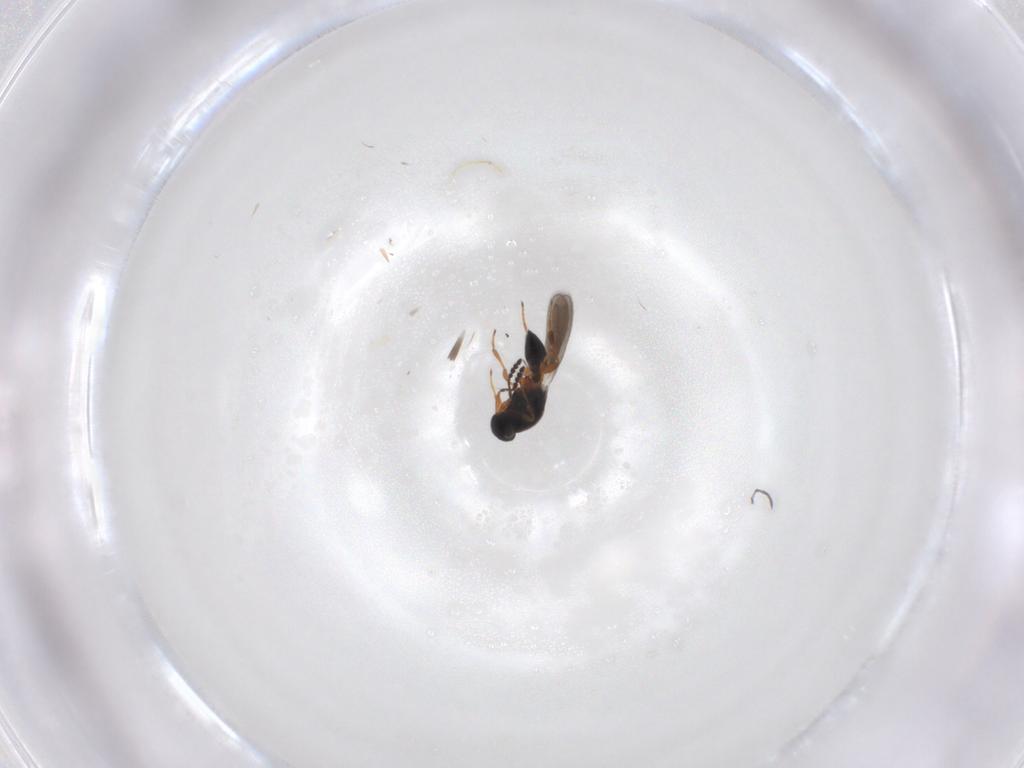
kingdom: Animalia
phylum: Arthropoda
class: Insecta
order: Hymenoptera
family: Platygastridae
